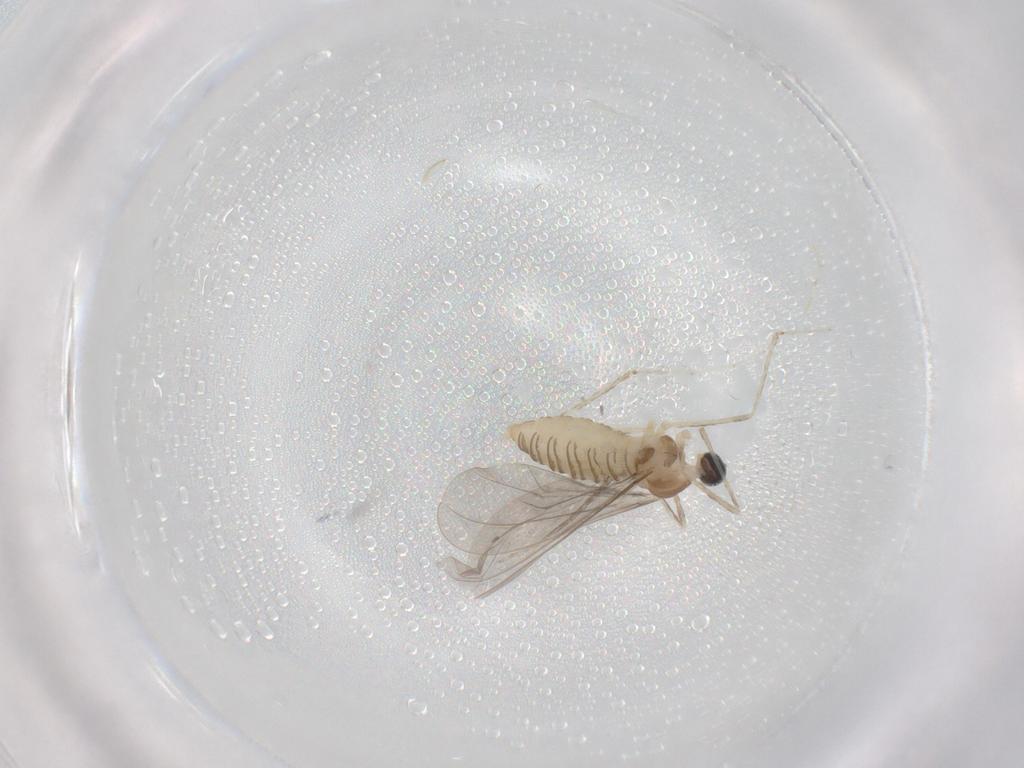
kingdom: Animalia
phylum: Arthropoda
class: Insecta
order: Diptera
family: Cecidomyiidae
